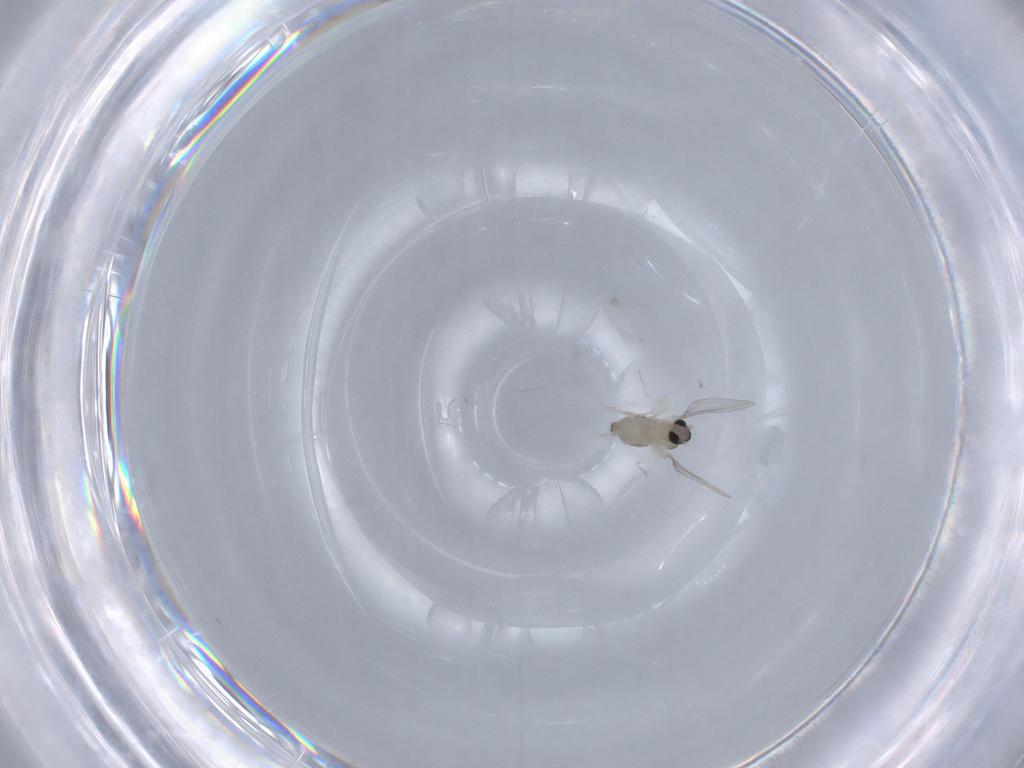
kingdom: Animalia
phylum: Arthropoda
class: Insecta
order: Diptera
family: Cecidomyiidae
